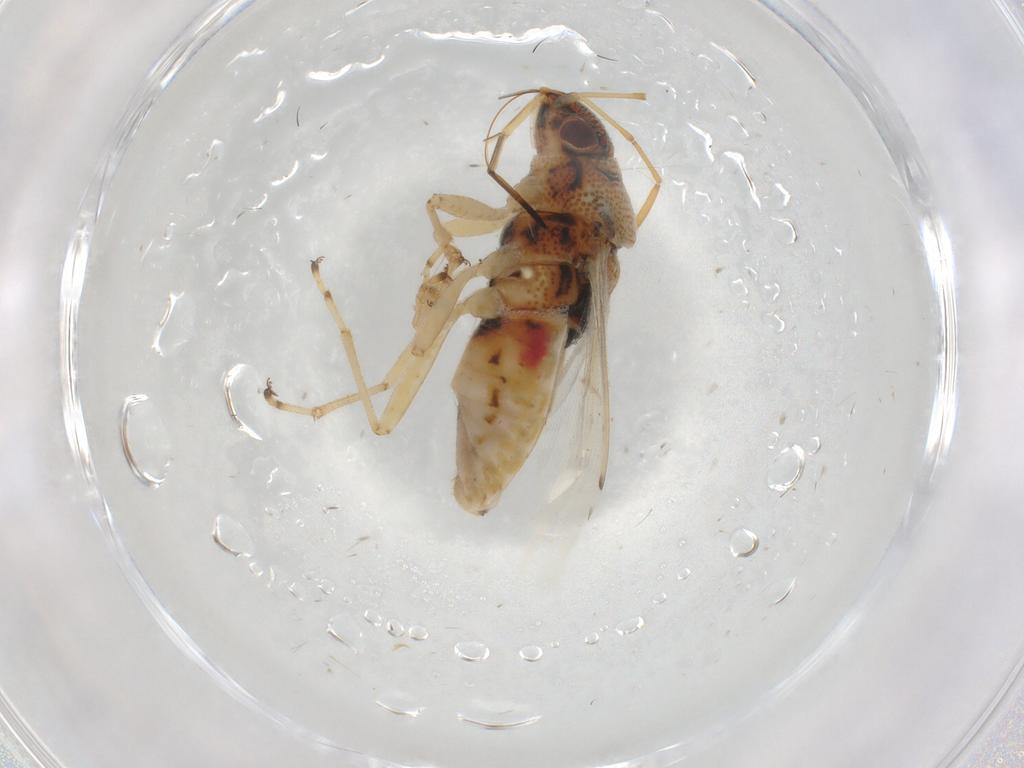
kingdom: Animalia
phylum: Arthropoda
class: Insecta
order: Hemiptera
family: Lygaeidae
